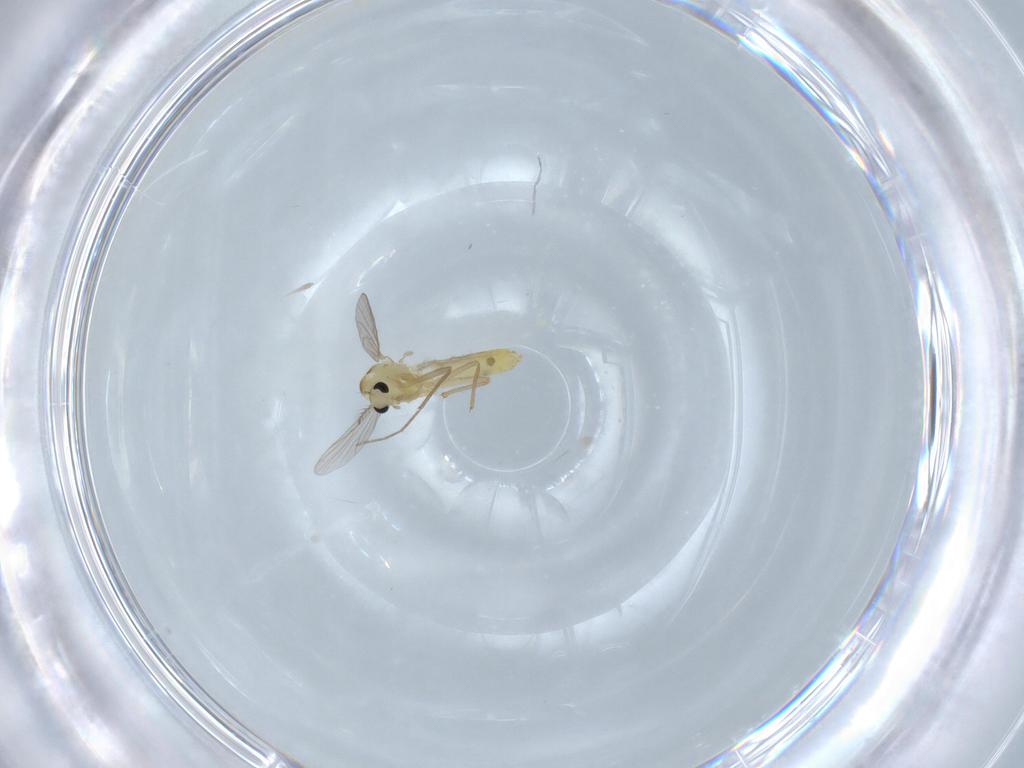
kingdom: Animalia
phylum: Arthropoda
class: Insecta
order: Diptera
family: Chironomidae
